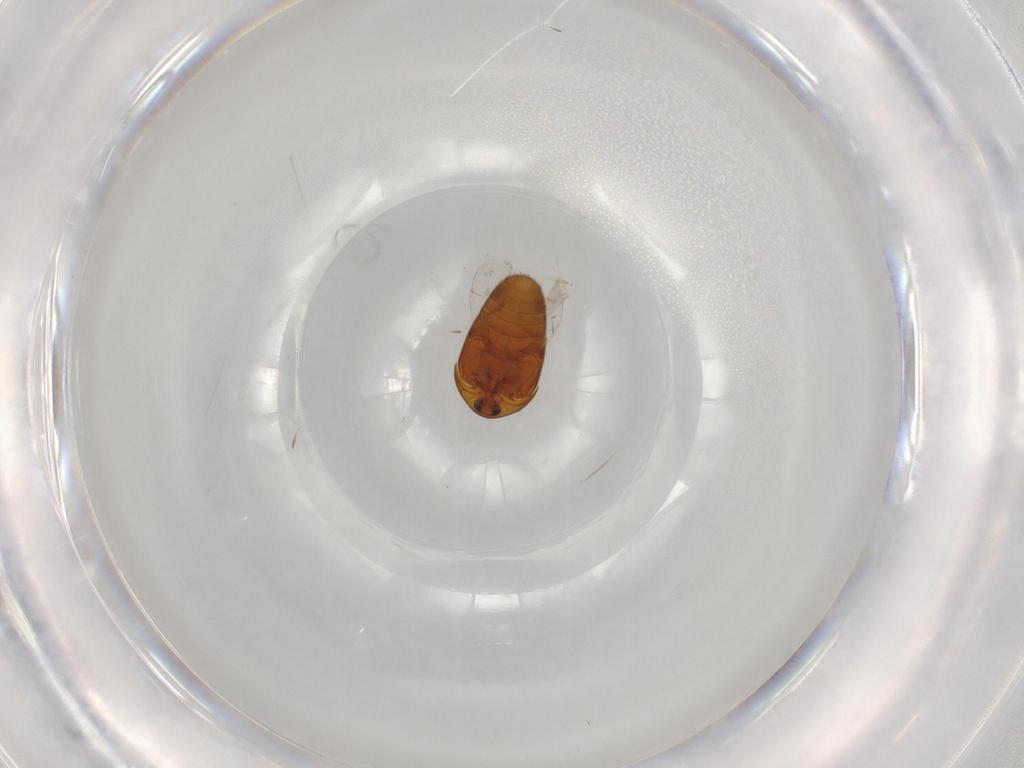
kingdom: Animalia
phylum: Arthropoda
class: Insecta
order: Coleoptera
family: Corylophidae
